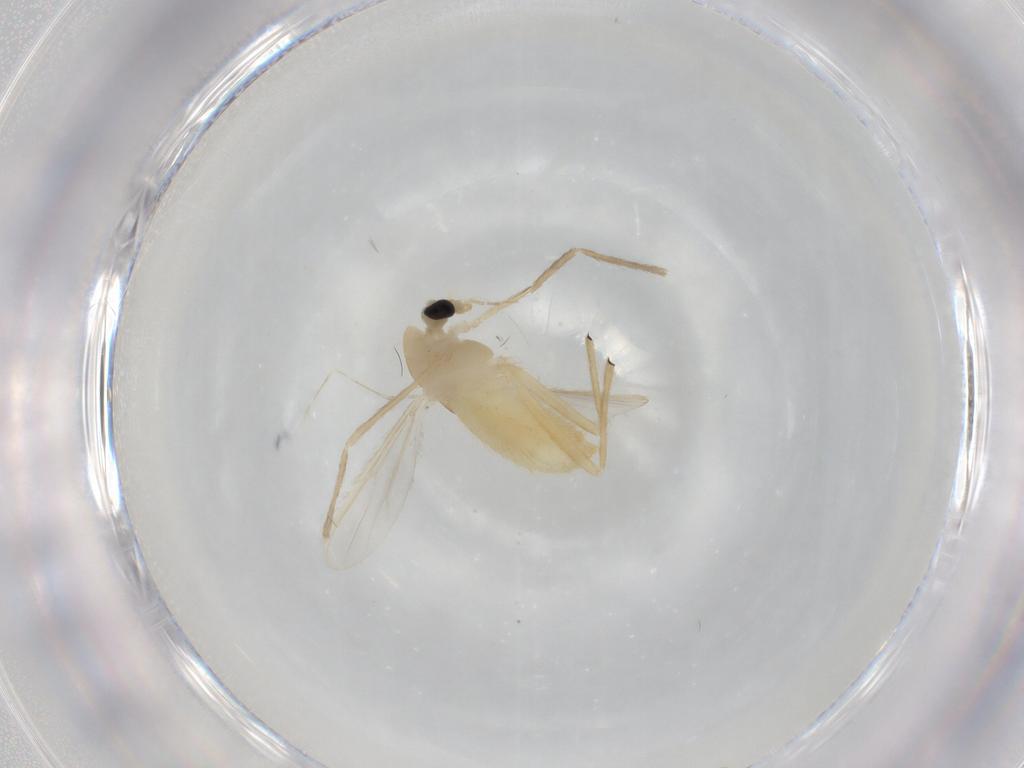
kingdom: Animalia
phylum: Arthropoda
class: Insecta
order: Diptera
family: Chironomidae
